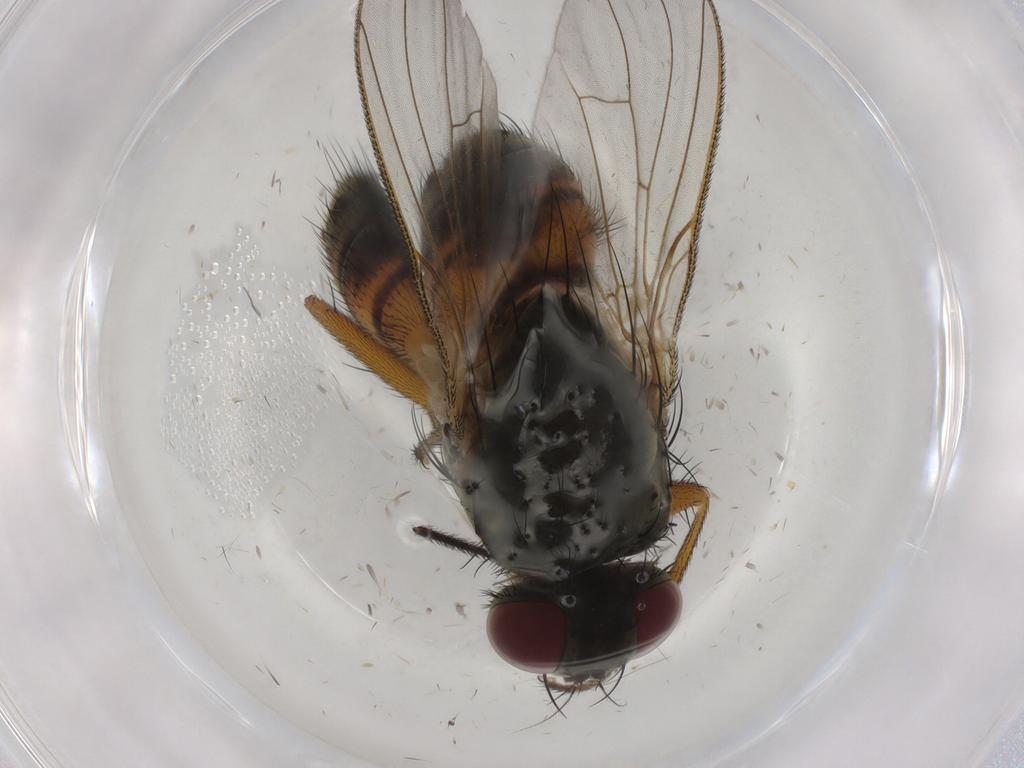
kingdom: Animalia
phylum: Arthropoda
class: Insecta
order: Diptera
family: Muscidae
